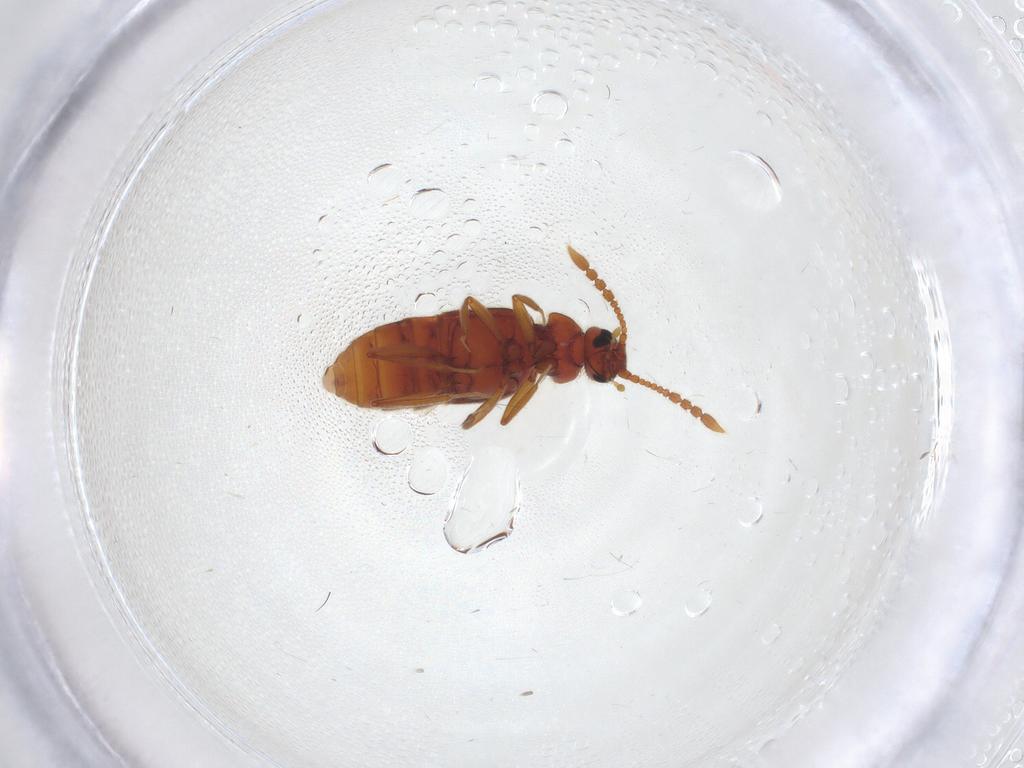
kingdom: Animalia
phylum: Arthropoda
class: Insecta
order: Coleoptera
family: Staphylinidae
